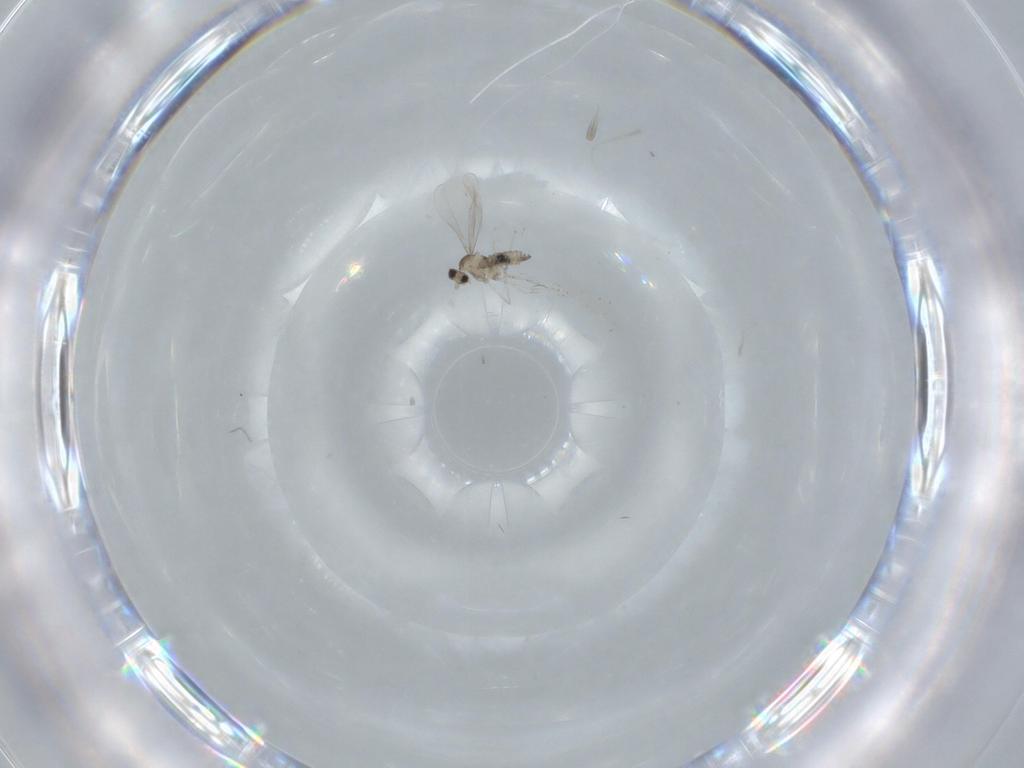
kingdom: Animalia
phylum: Arthropoda
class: Insecta
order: Diptera
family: Cecidomyiidae
